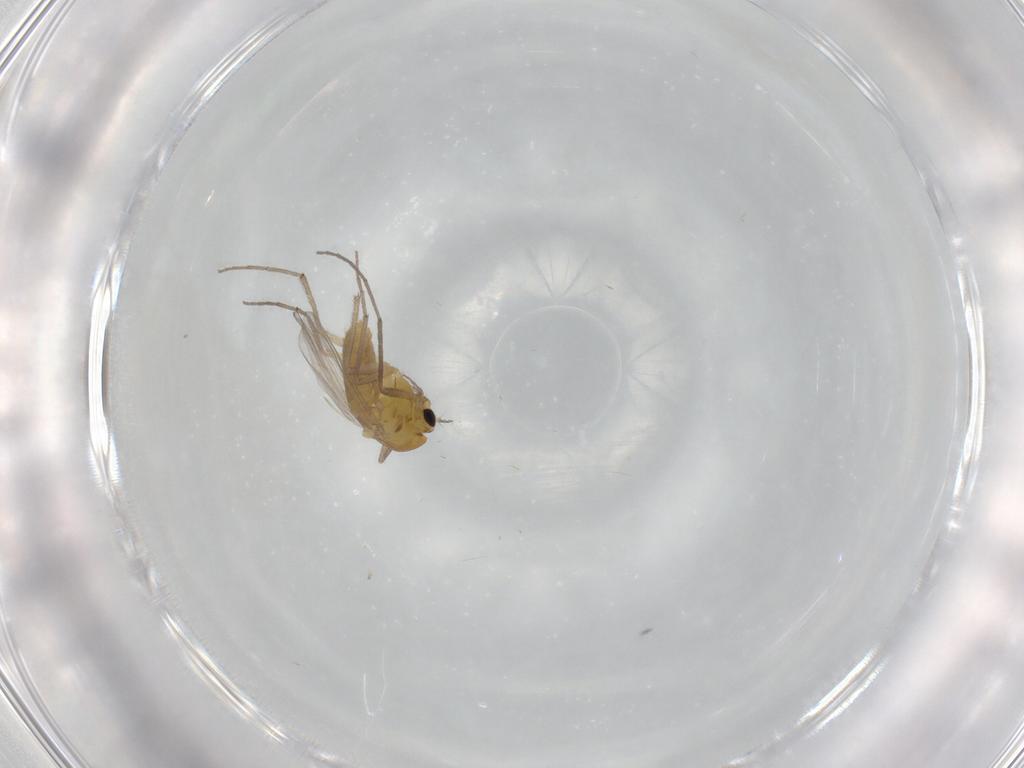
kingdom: Animalia
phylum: Arthropoda
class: Insecta
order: Diptera
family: Chironomidae
